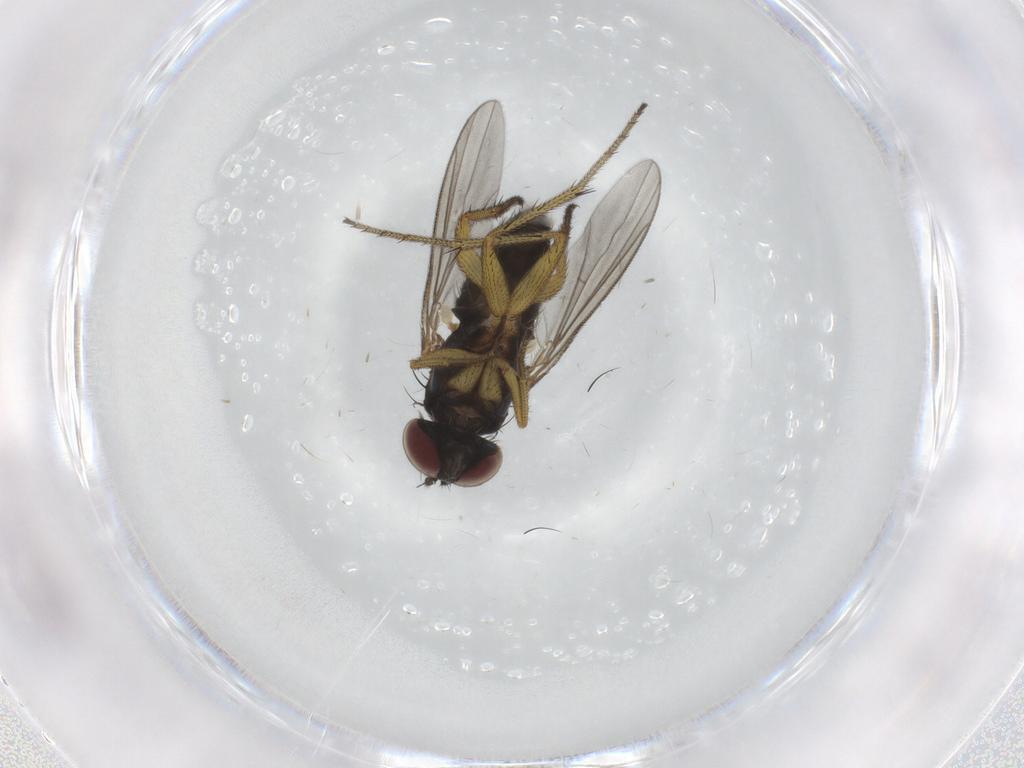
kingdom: Animalia
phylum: Arthropoda
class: Insecta
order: Diptera
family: Dolichopodidae
